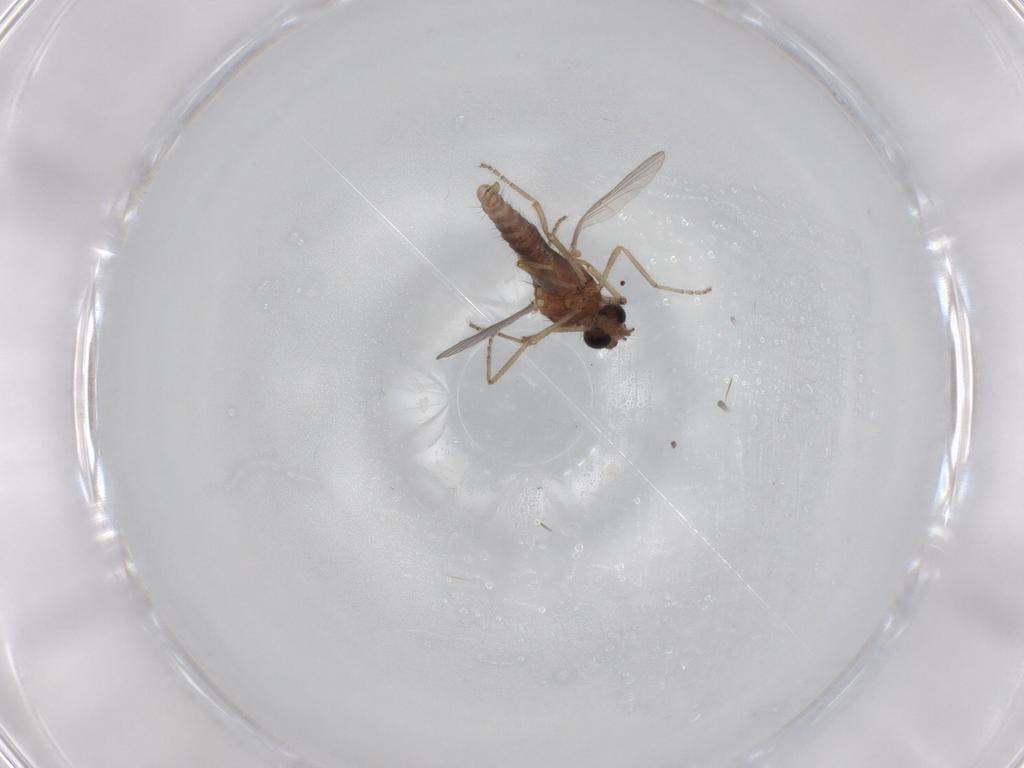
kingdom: Animalia
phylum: Arthropoda
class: Insecta
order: Diptera
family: Ceratopogonidae
